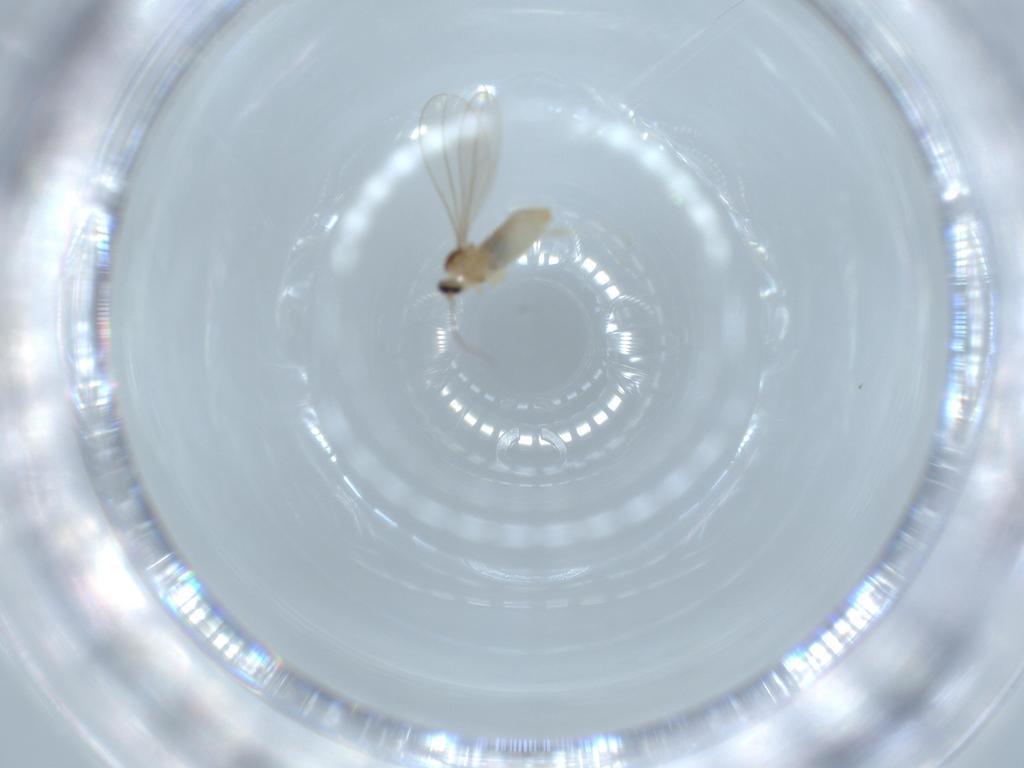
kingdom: Animalia
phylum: Arthropoda
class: Insecta
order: Diptera
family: Cecidomyiidae
